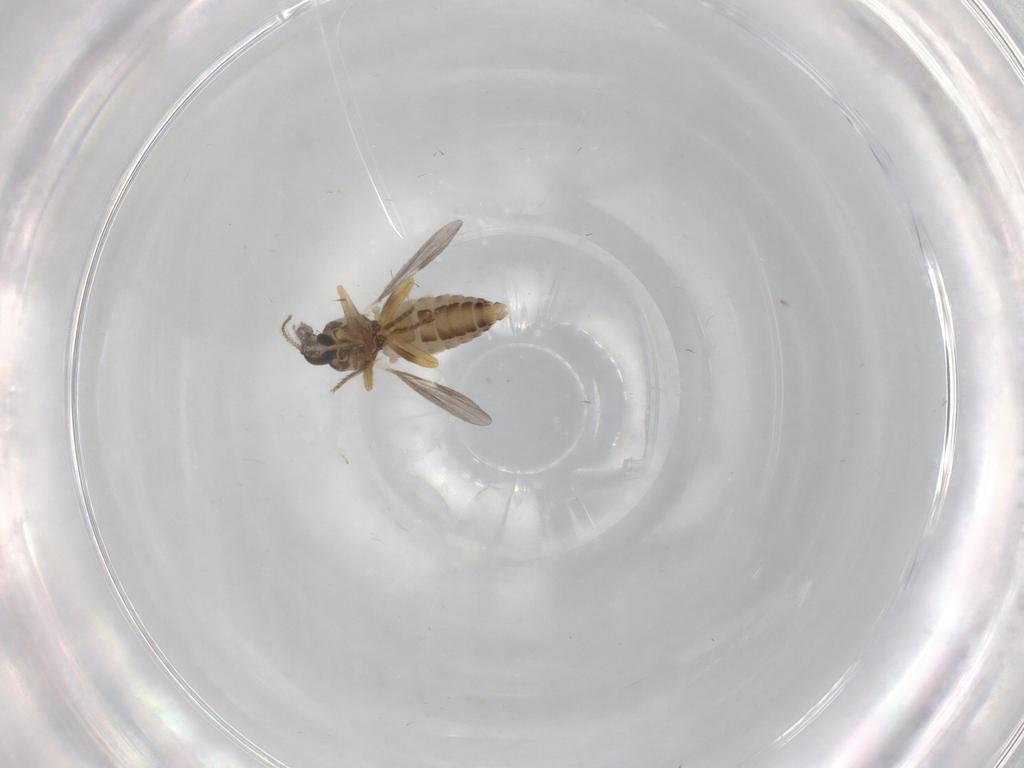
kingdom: Animalia
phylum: Arthropoda
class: Insecta
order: Diptera
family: Ceratopogonidae
